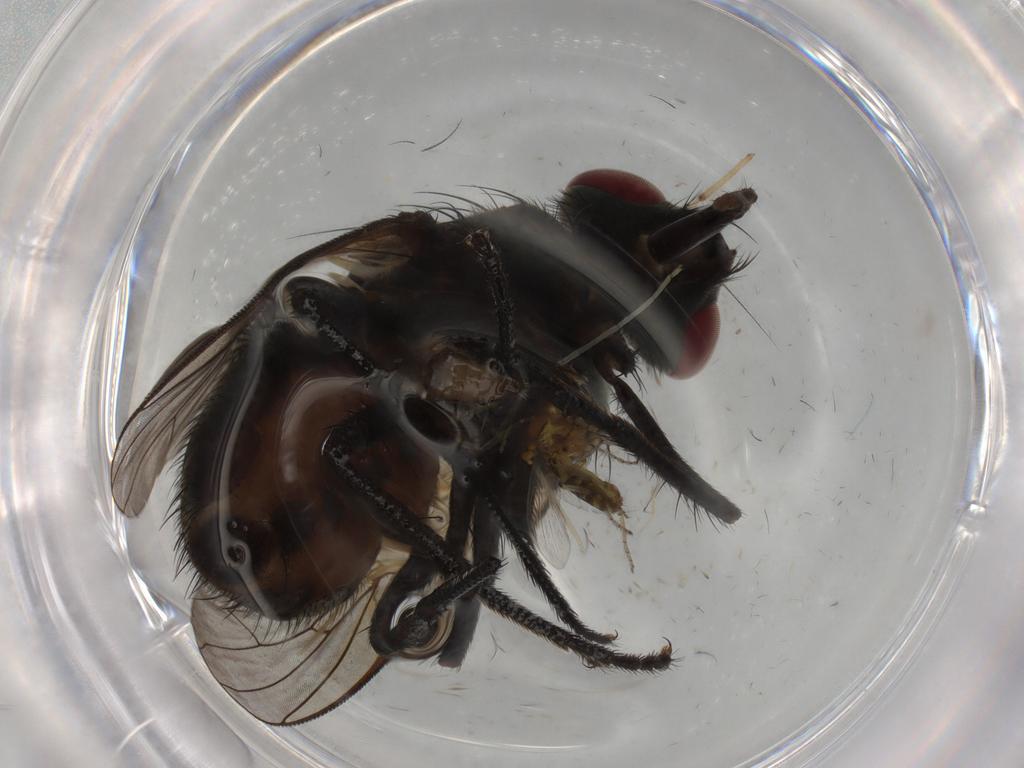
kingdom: Animalia
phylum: Arthropoda
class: Insecta
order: Diptera
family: Muscidae
